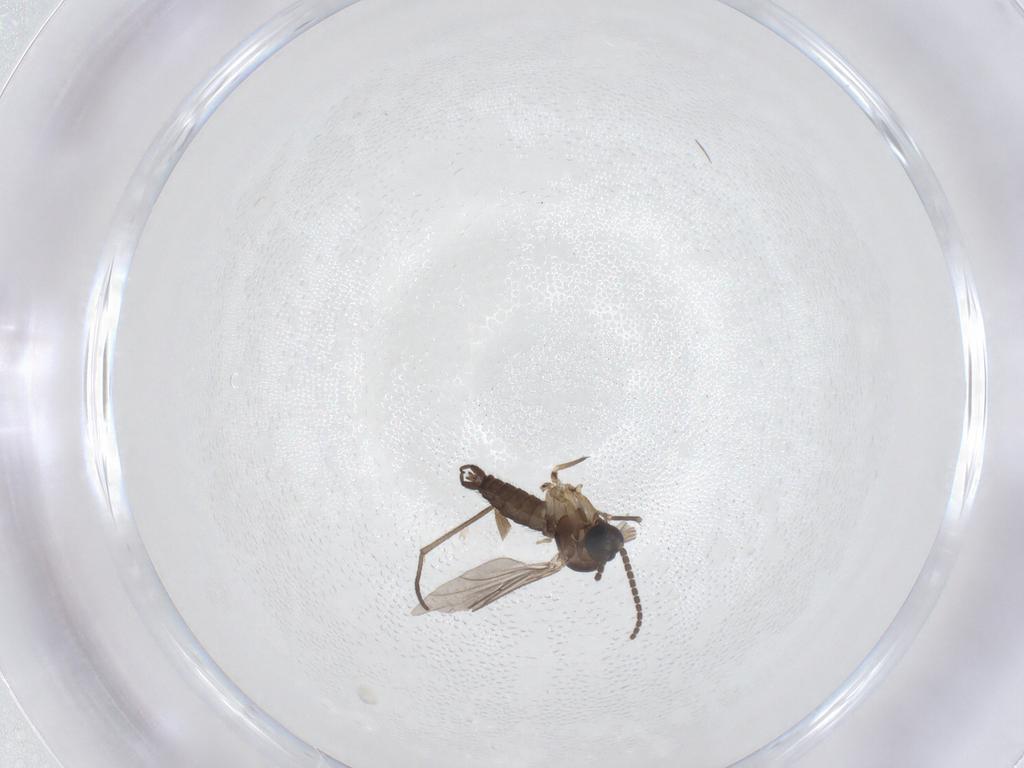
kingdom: Animalia
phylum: Arthropoda
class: Insecta
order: Diptera
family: Sciaridae
